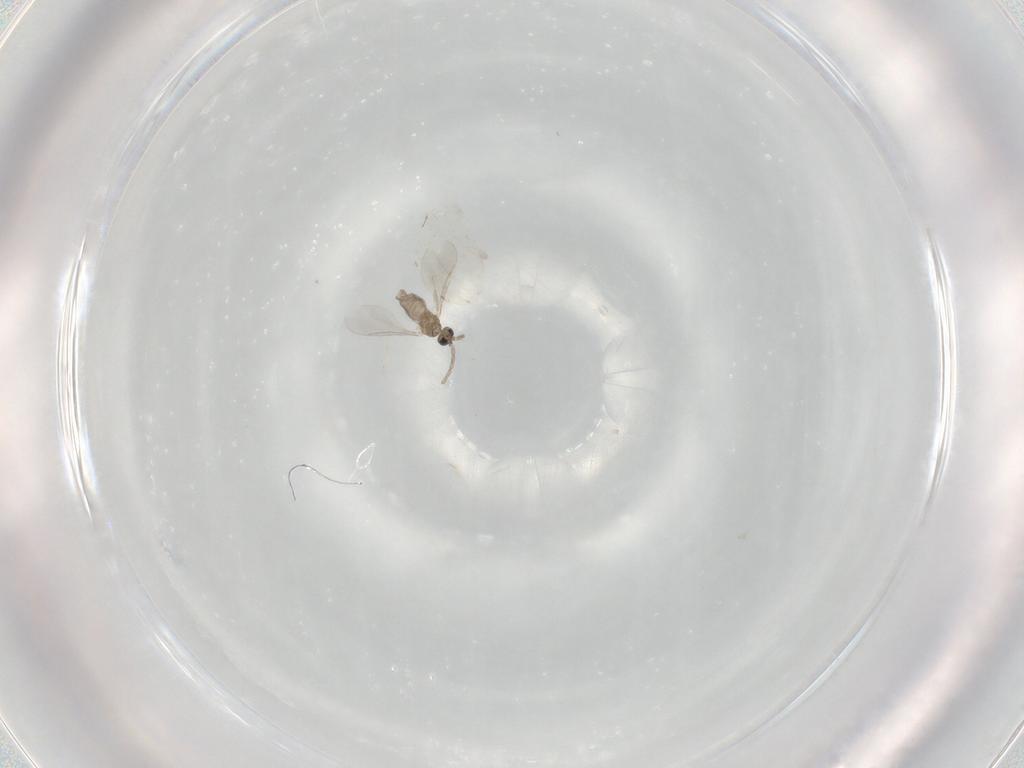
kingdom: Animalia
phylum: Arthropoda
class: Insecta
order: Diptera
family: Cecidomyiidae
